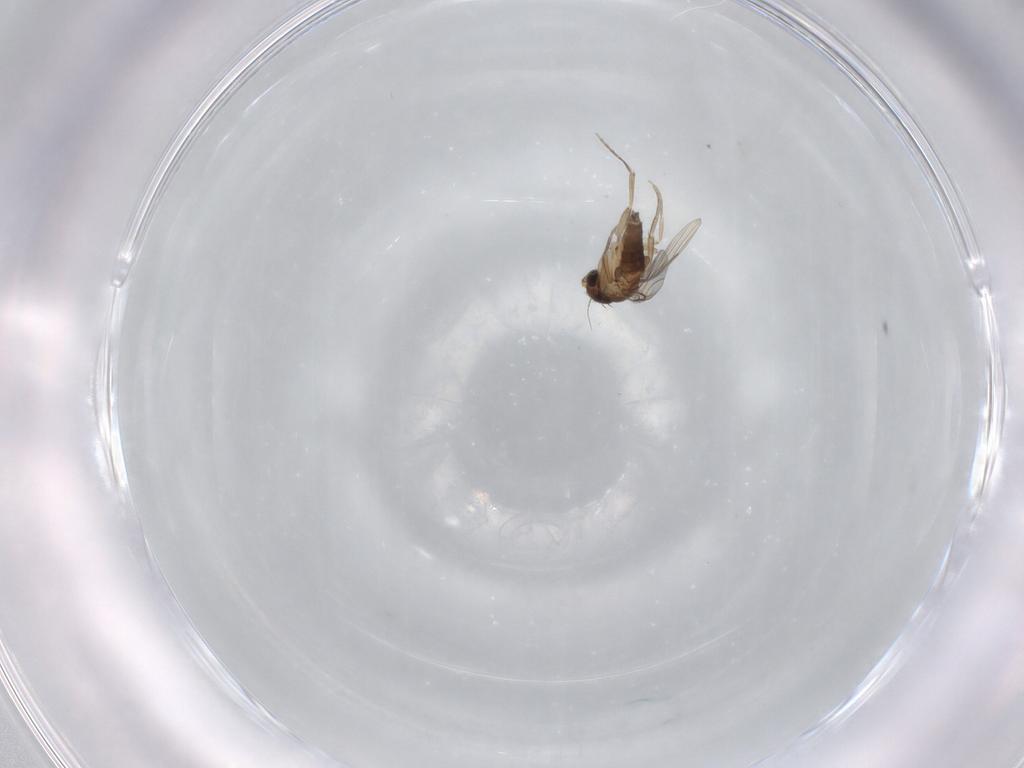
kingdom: Animalia
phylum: Arthropoda
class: Insecta
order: Diptera
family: Phoridae
